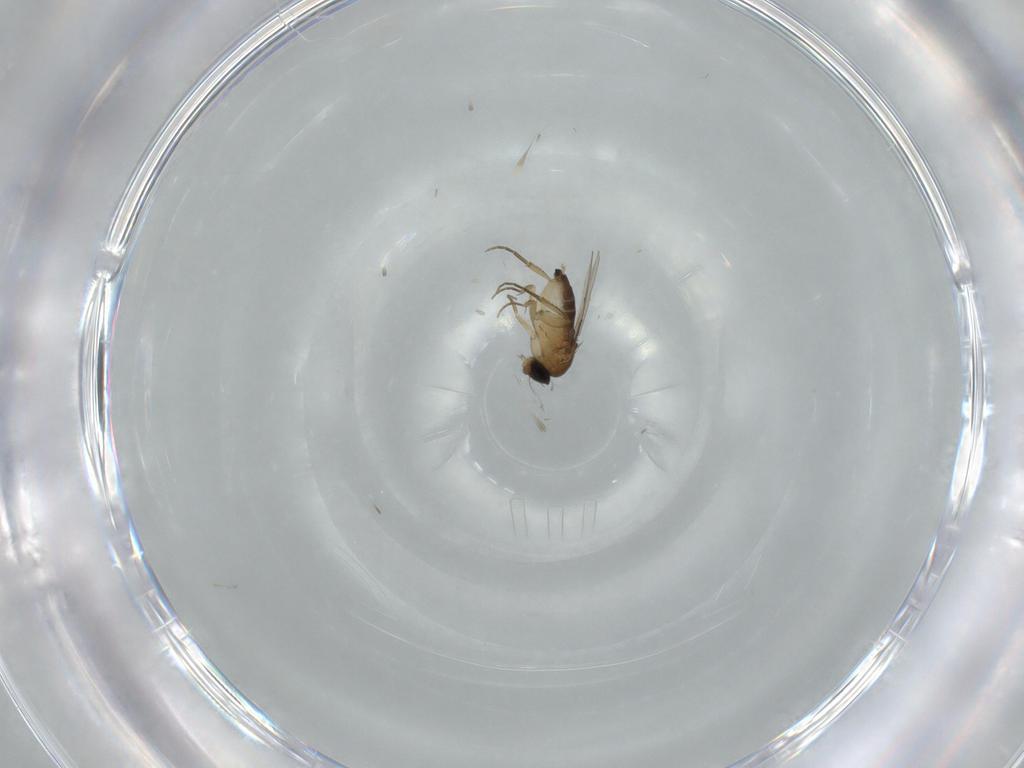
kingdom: Animalia
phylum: Arthropoda
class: Insecta
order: Diptera
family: Phoridae
